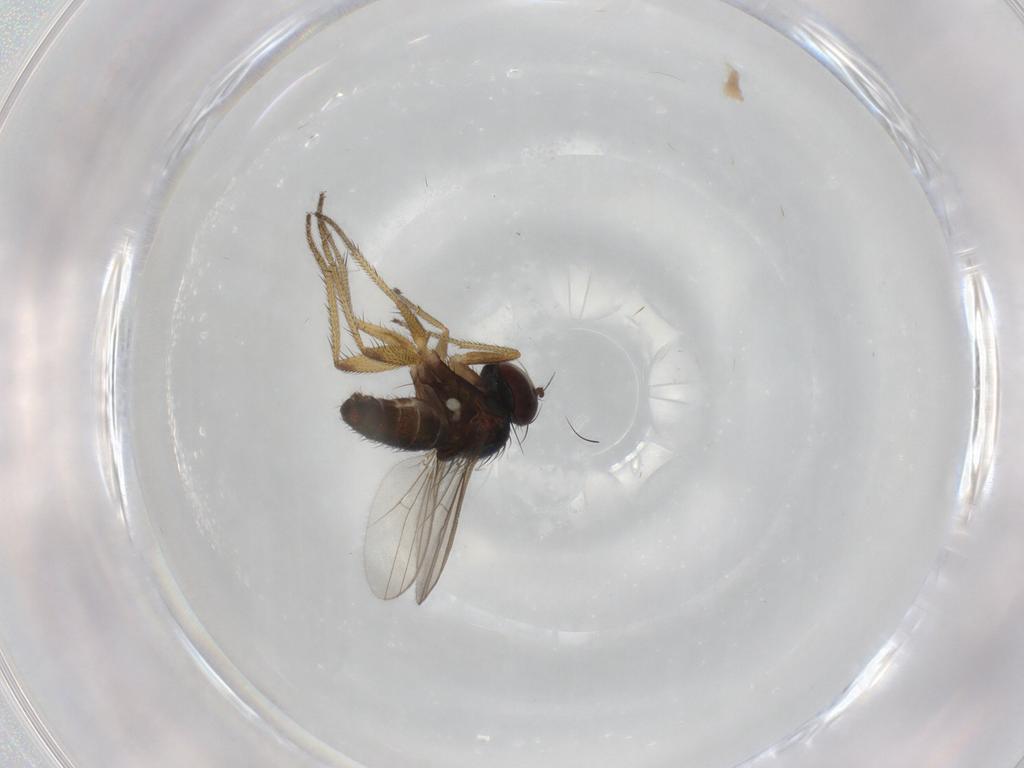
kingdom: Animalia
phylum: Arthropoda
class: Insecta
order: Diptera
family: Dolichopodidae
